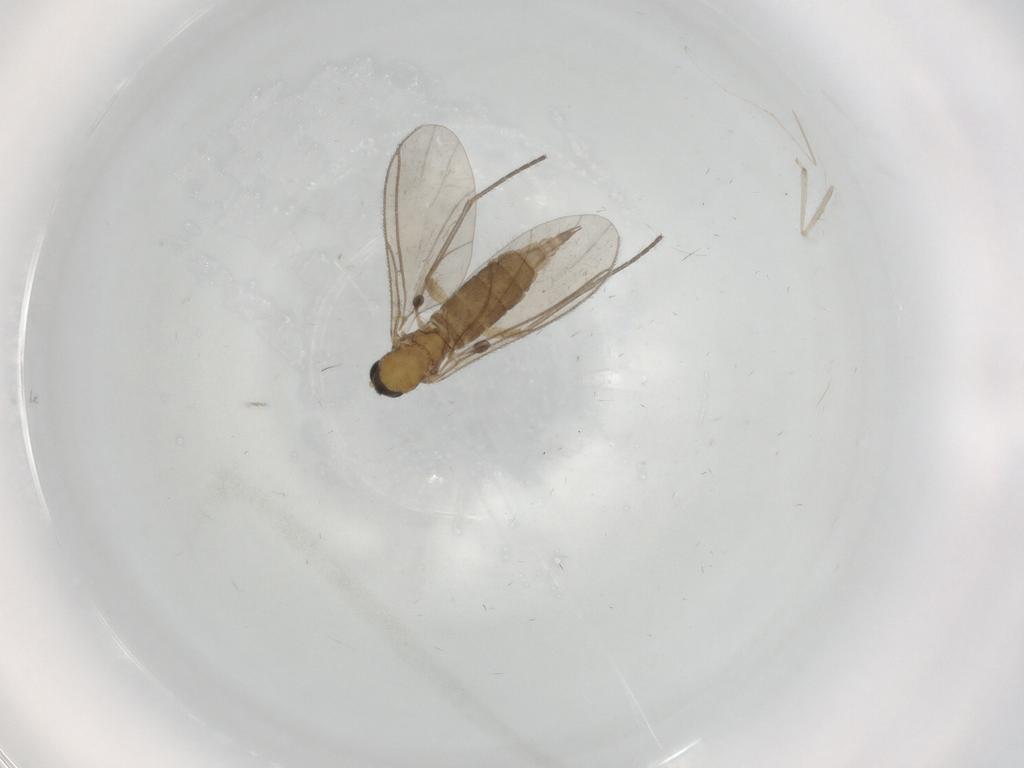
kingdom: Animalia
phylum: Arthropoda
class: Insecta
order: Diptera
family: Cecidomyiidae
